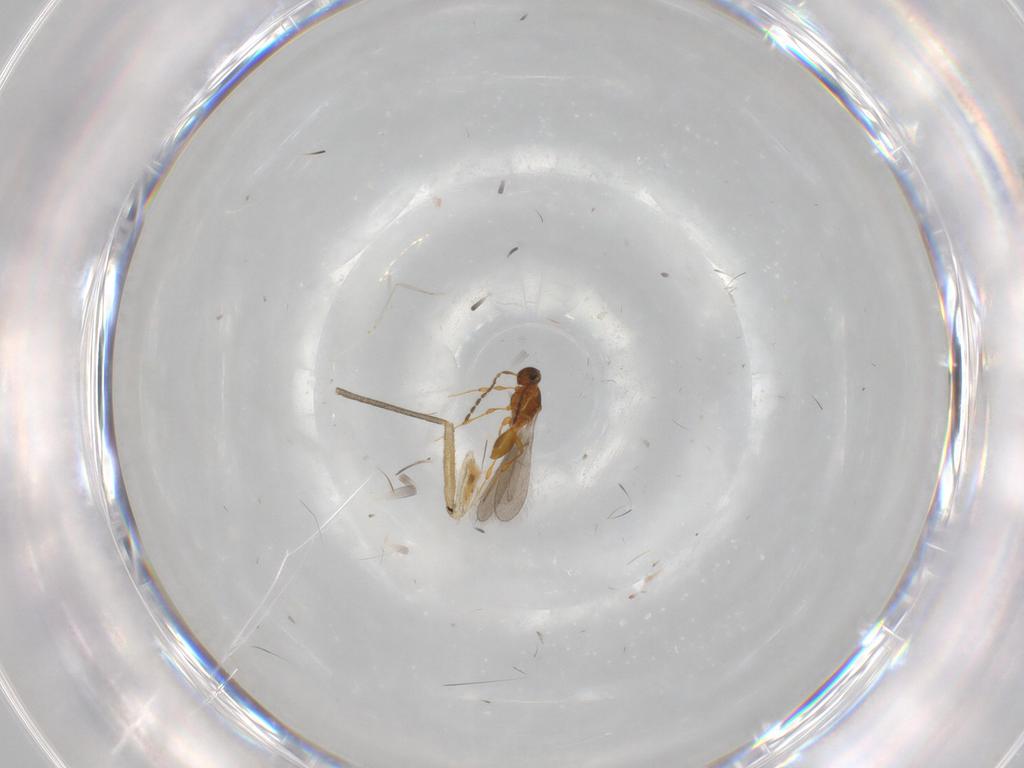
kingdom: Animalia
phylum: Arthropoda
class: Insecta
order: Hymenoptera
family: Platygastridae
